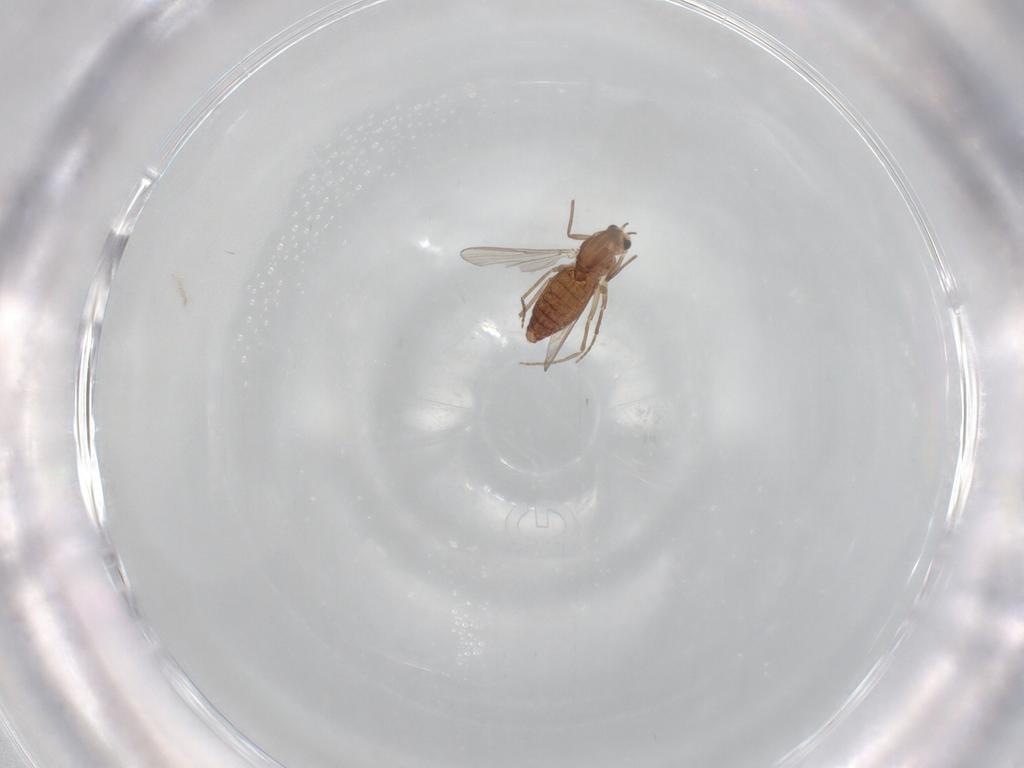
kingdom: Animalia
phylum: Arthropoda
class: Insecta
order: Diptera
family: Chironomidae
